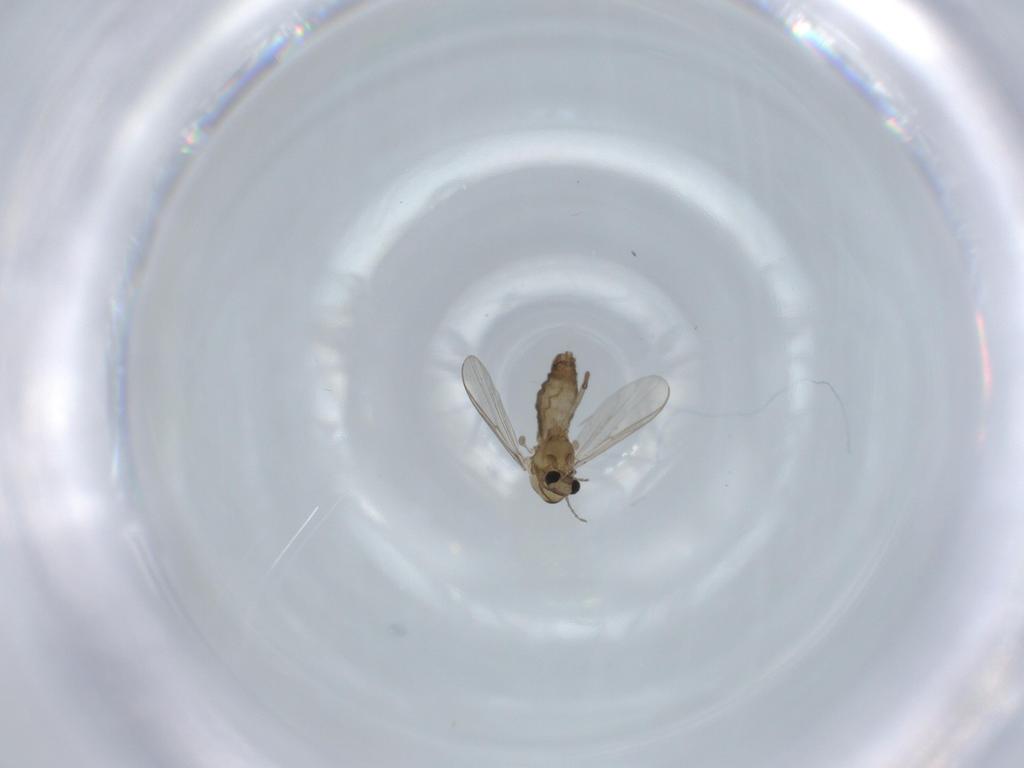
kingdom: Animalia
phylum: Arthropoda
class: Insecta
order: Diptera
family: Chironomidae
